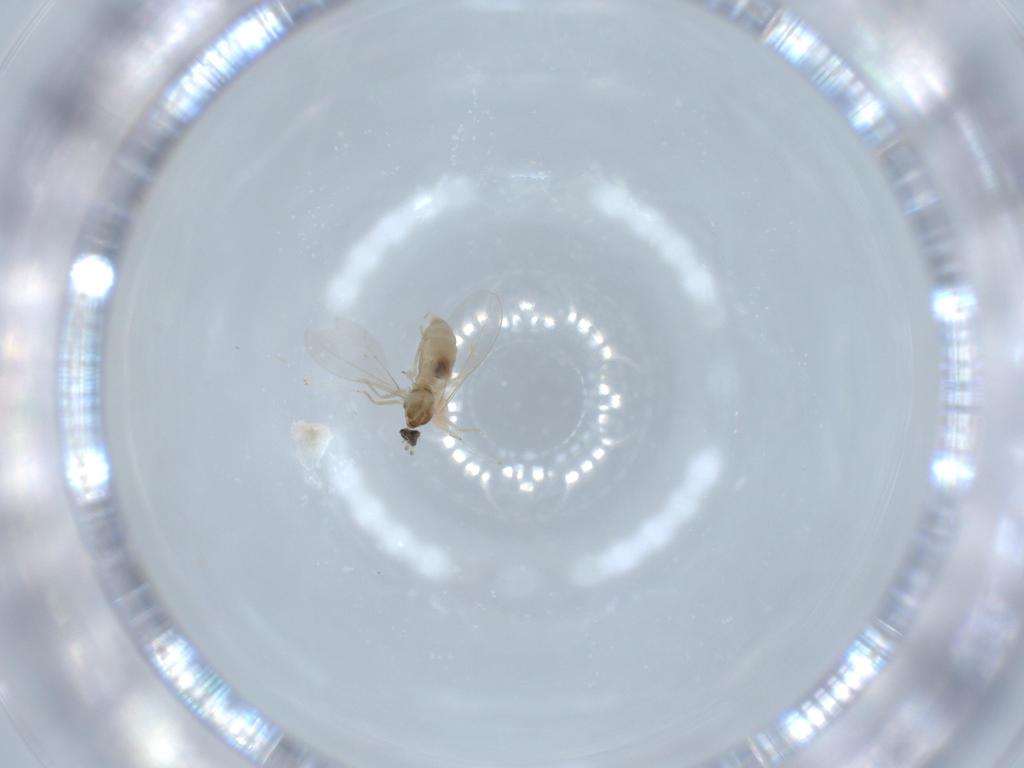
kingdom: Animalia
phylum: Arthropoda
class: Insecta
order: Diptera
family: Cecidomyiidae
